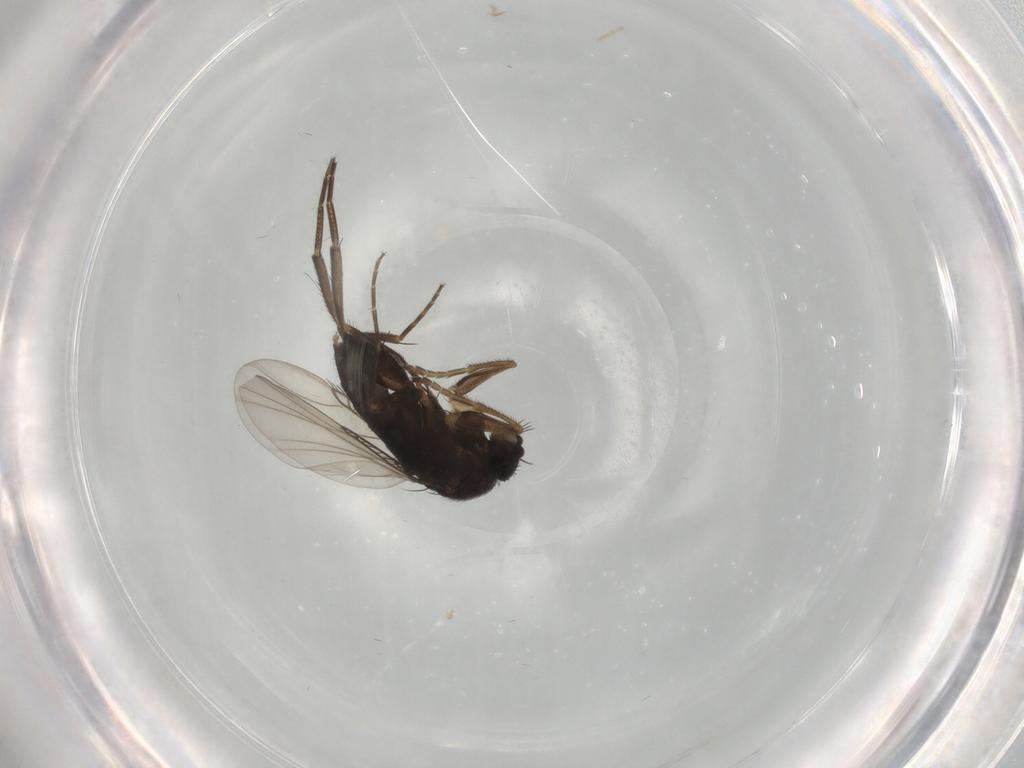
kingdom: Animalia
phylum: Arthropoda
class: Insecta
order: Diptera
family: Phoridae
